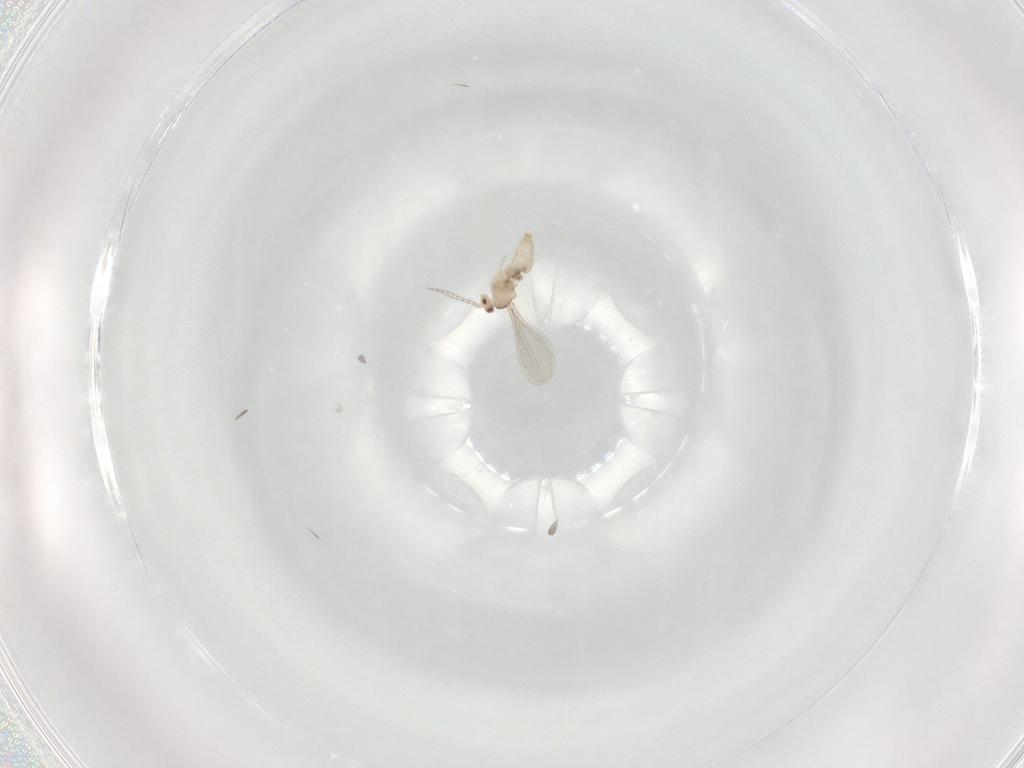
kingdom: Animalia
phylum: Arthropoda
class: Insecta
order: Diptera
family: Cecidomyiidae
